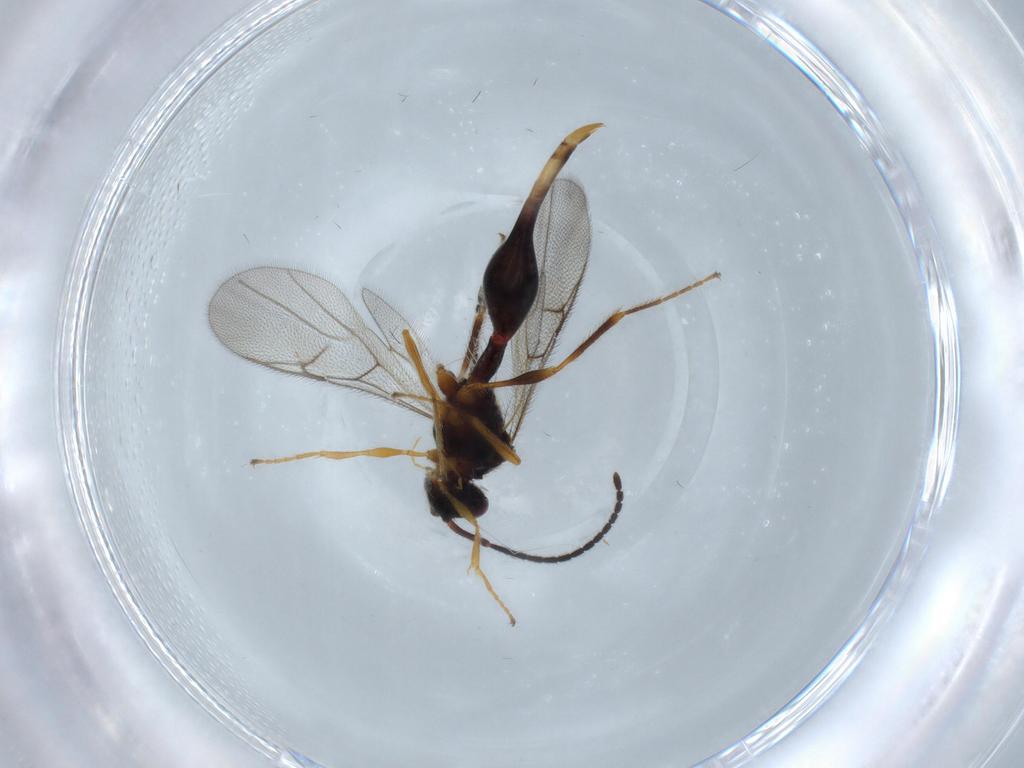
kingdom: Animalia
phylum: Arthropoda
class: Insecta
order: Hymenoptera
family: Diapriidae
